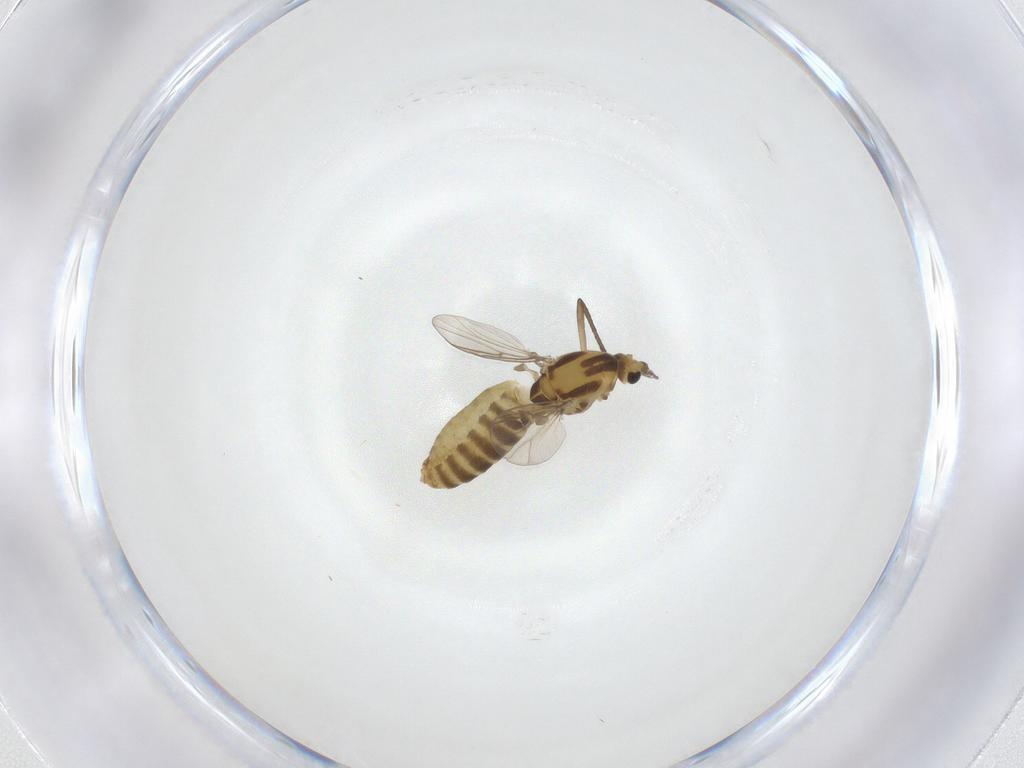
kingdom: Animalia
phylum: Arthropoda
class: Insecta
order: Diptera
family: Chironomidae
